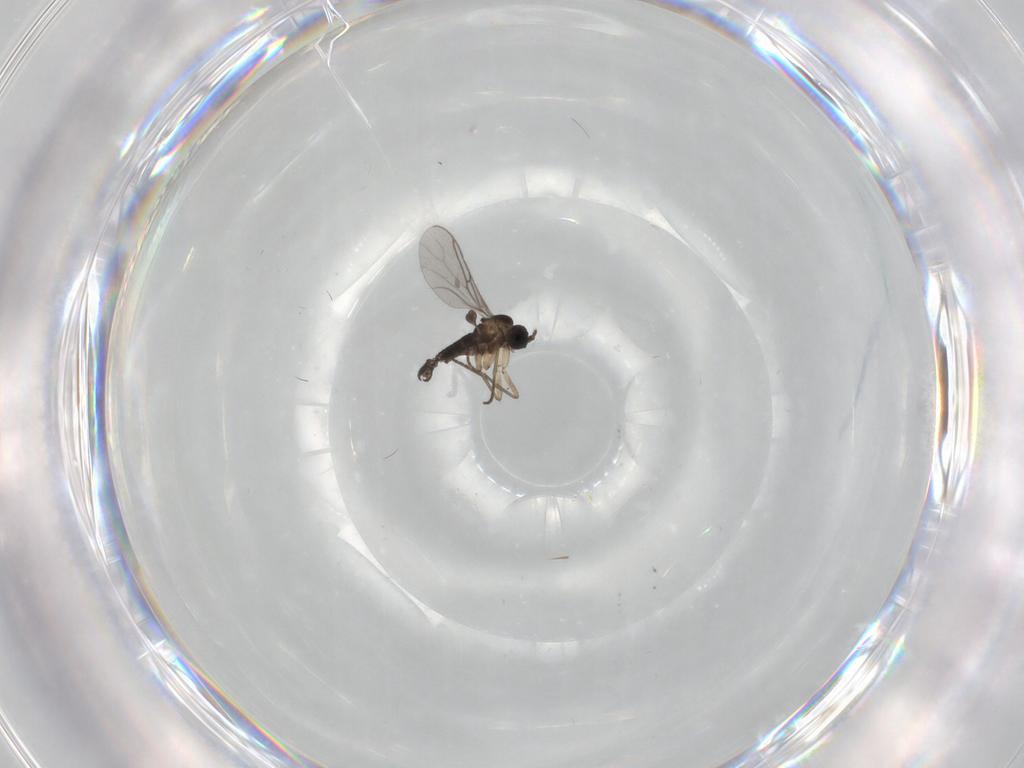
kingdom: Animalia
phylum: Arthropoda
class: Insecta
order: Diptera
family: Sciaridae
